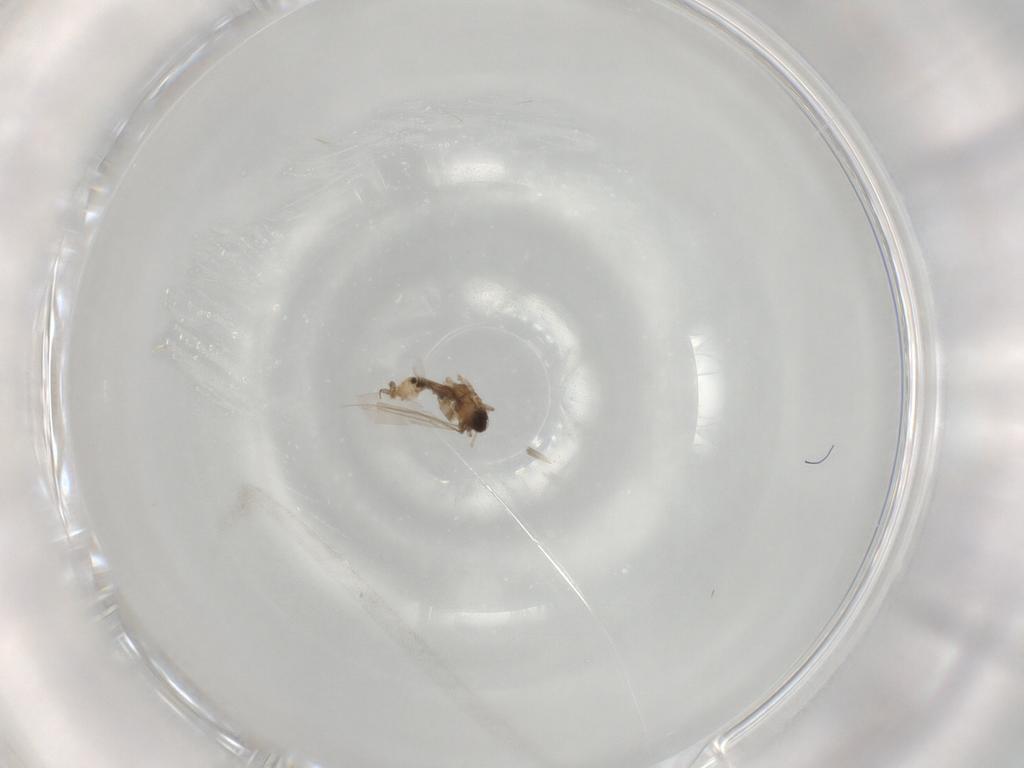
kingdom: Animalia
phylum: Arthropoda
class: Insecta
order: Diptera
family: Cecidomyiidae
